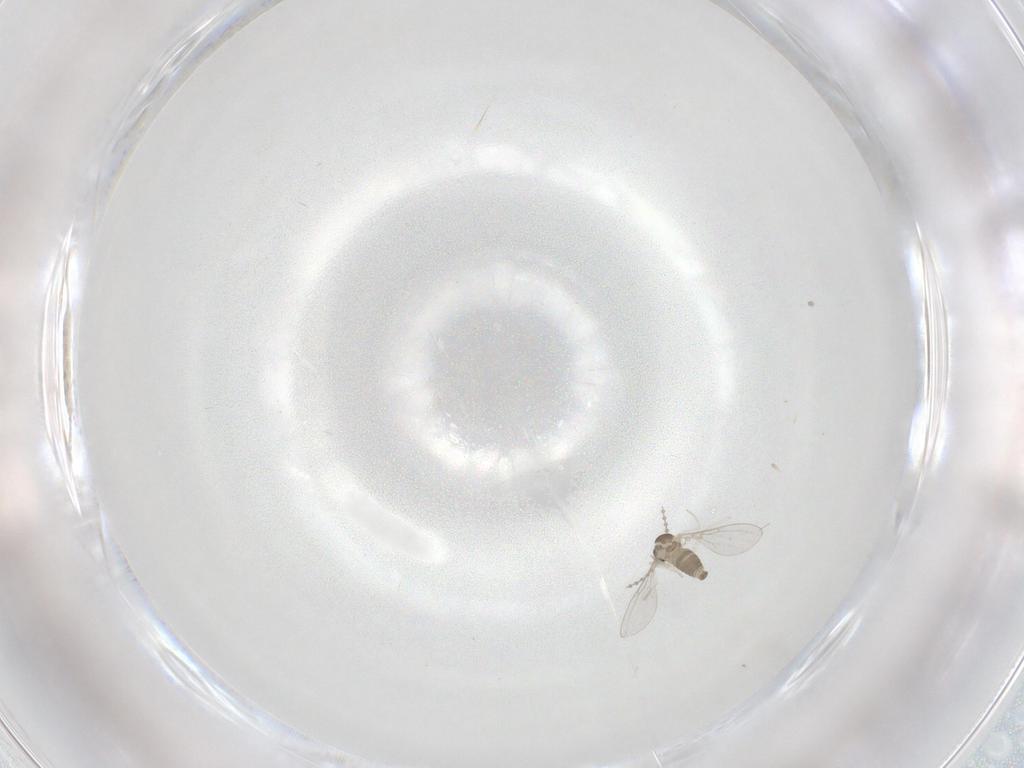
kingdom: Animalia
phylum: Arthropoda
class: Insecta
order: Diptera
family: Cecidomyiidae
